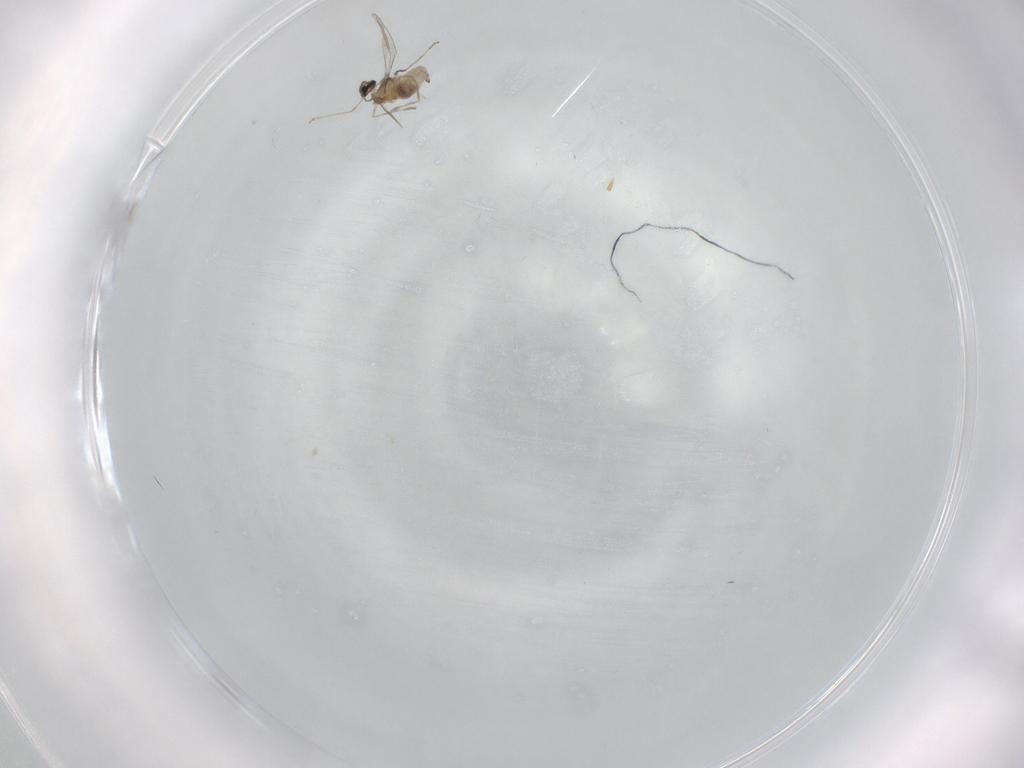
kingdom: Animalia
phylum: Arthropoda
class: Insecta
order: Diptera
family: Cecidomyiidae
